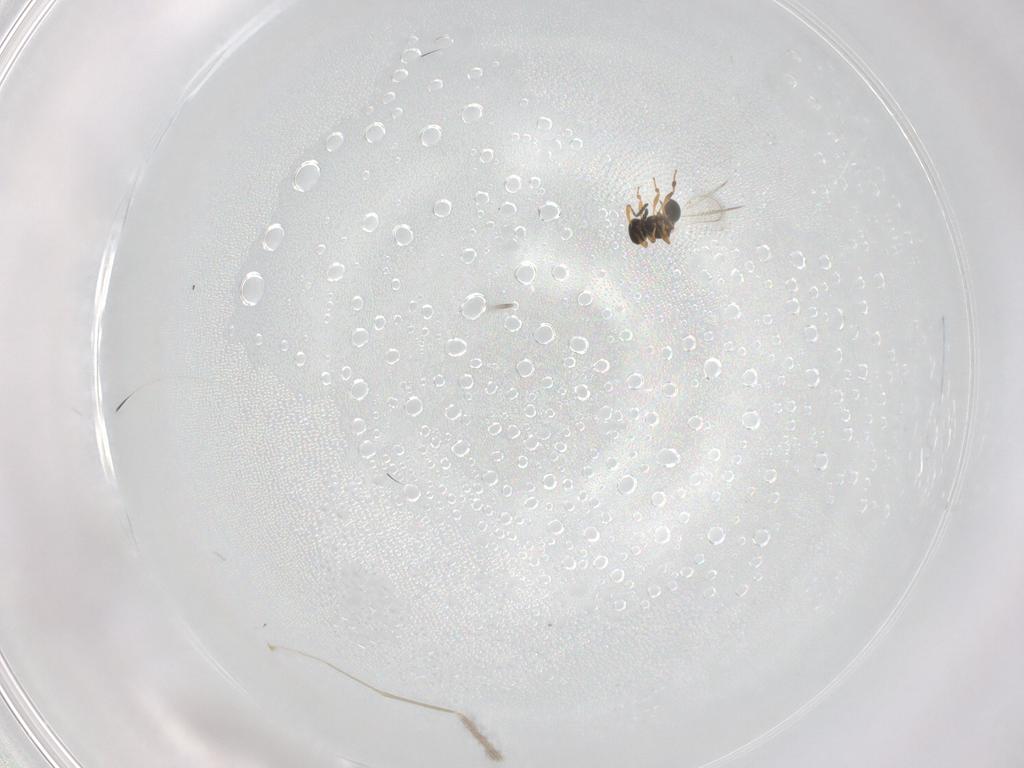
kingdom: Animalia
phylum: Arthropoda
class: Insecta
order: Hymenoptera
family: Platygastridae
